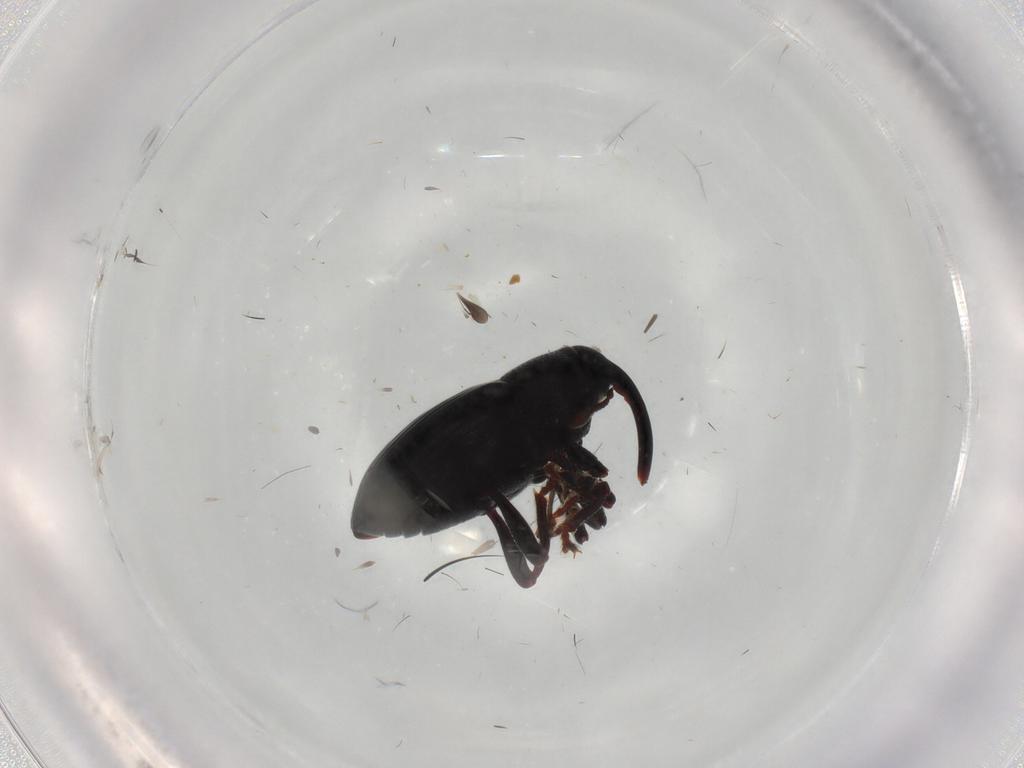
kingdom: Animalia
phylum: Arthropoda
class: Insecta
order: Coleoptera
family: Curculionidae
